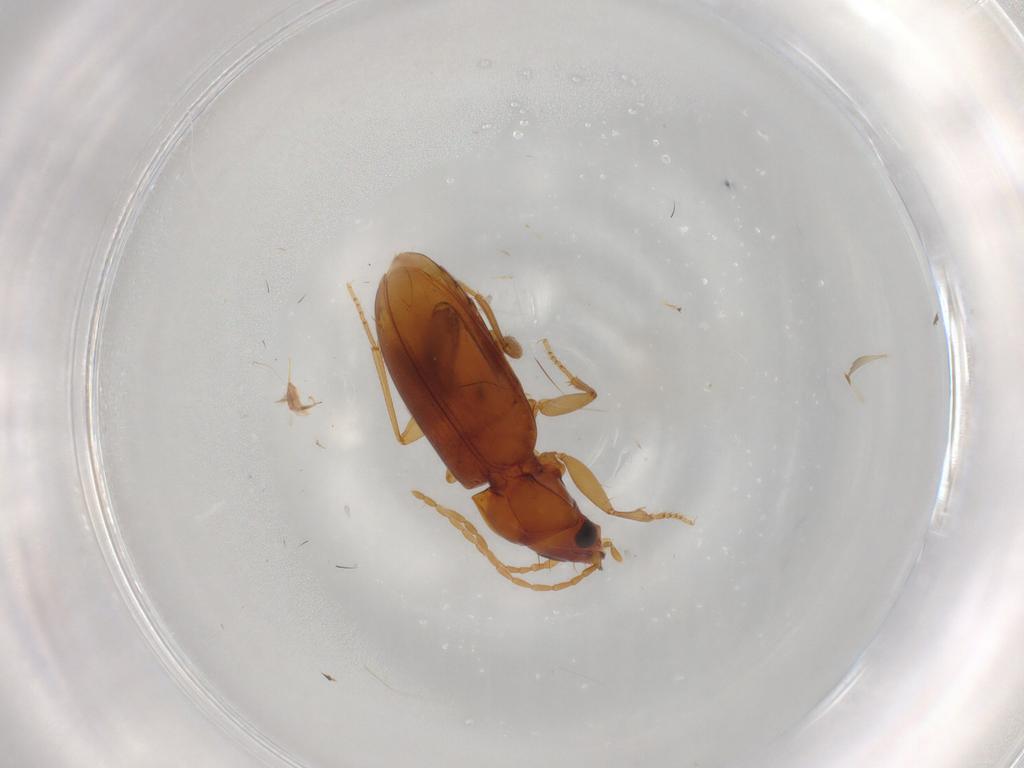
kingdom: Animalia
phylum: Arthropoda
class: Insecta
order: Coleoptera
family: Carabidae
